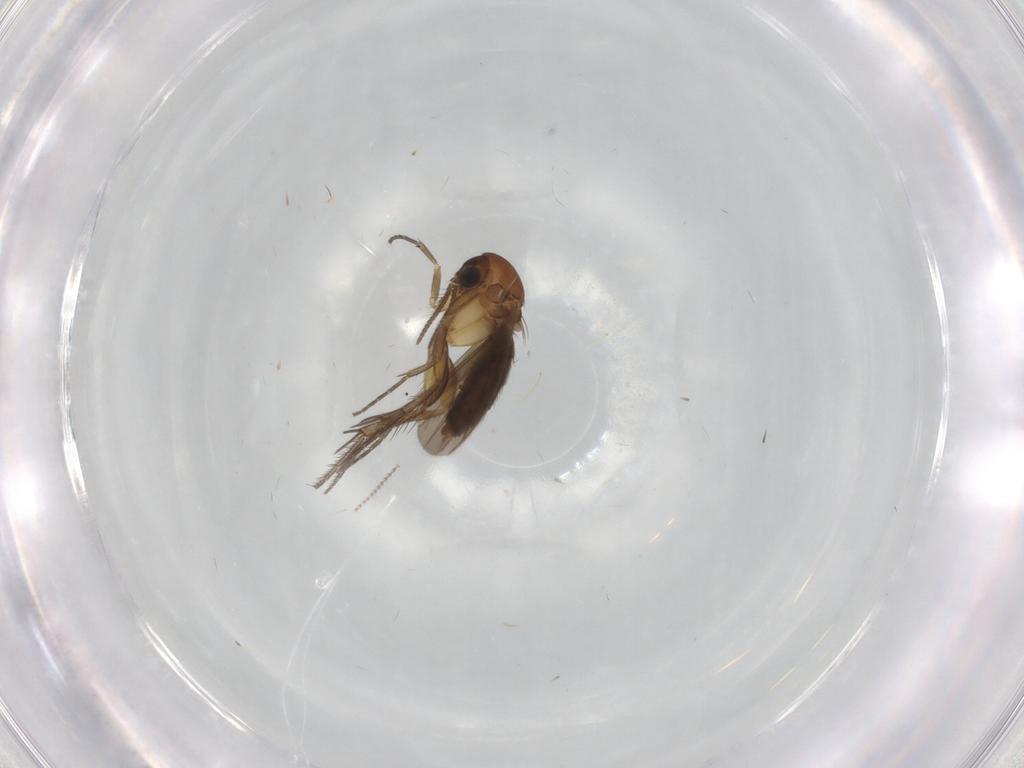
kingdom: Animalia
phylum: Arthropoda
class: Insecta
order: Diptera
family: Mycetophilidae
